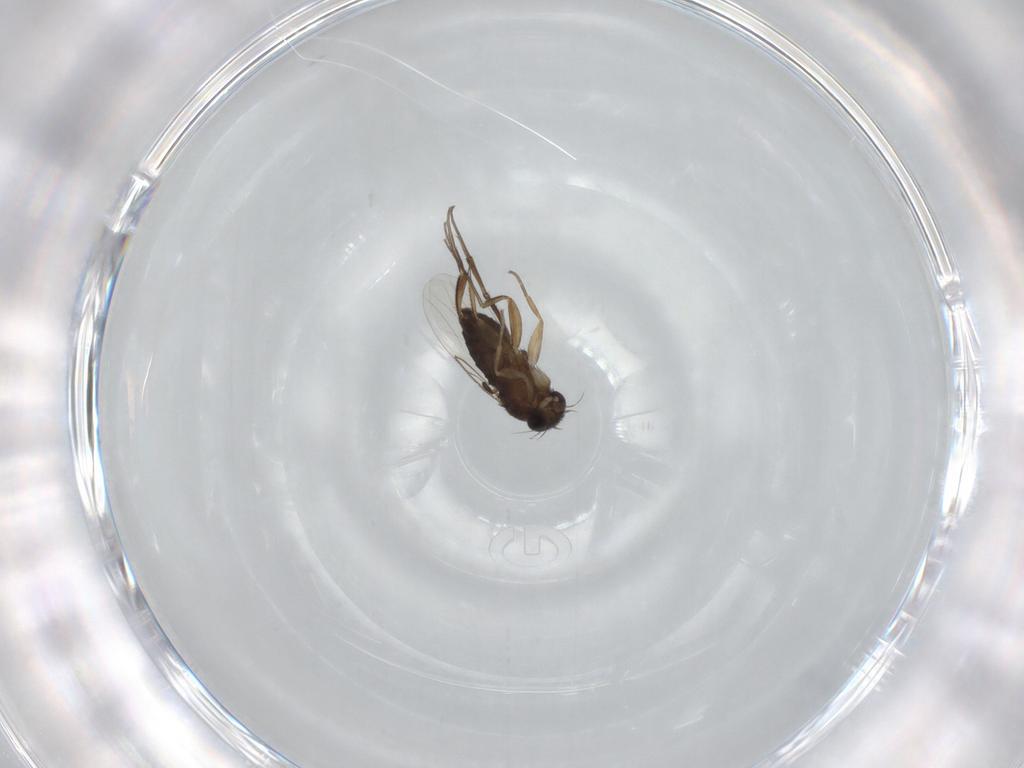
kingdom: Animalia
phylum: Arthropoda
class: Insecta
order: Diptera
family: Phoridae
